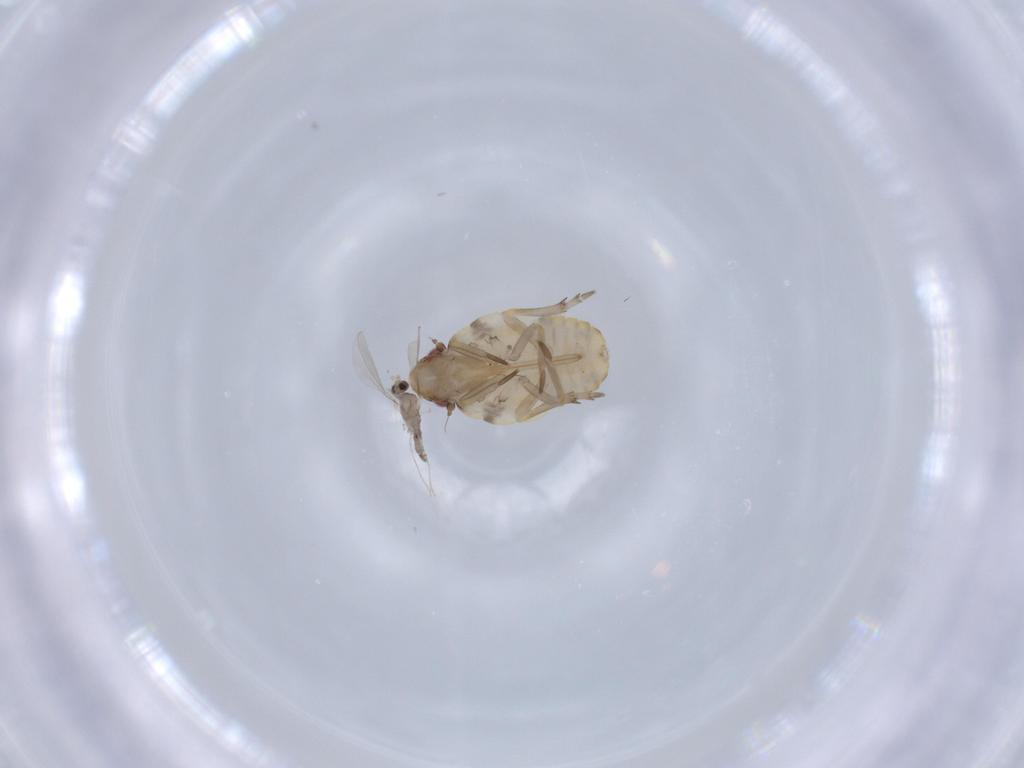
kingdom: Animalia
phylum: Arthropoda
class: Insecta
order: Diptera
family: Cecidomyiidae
